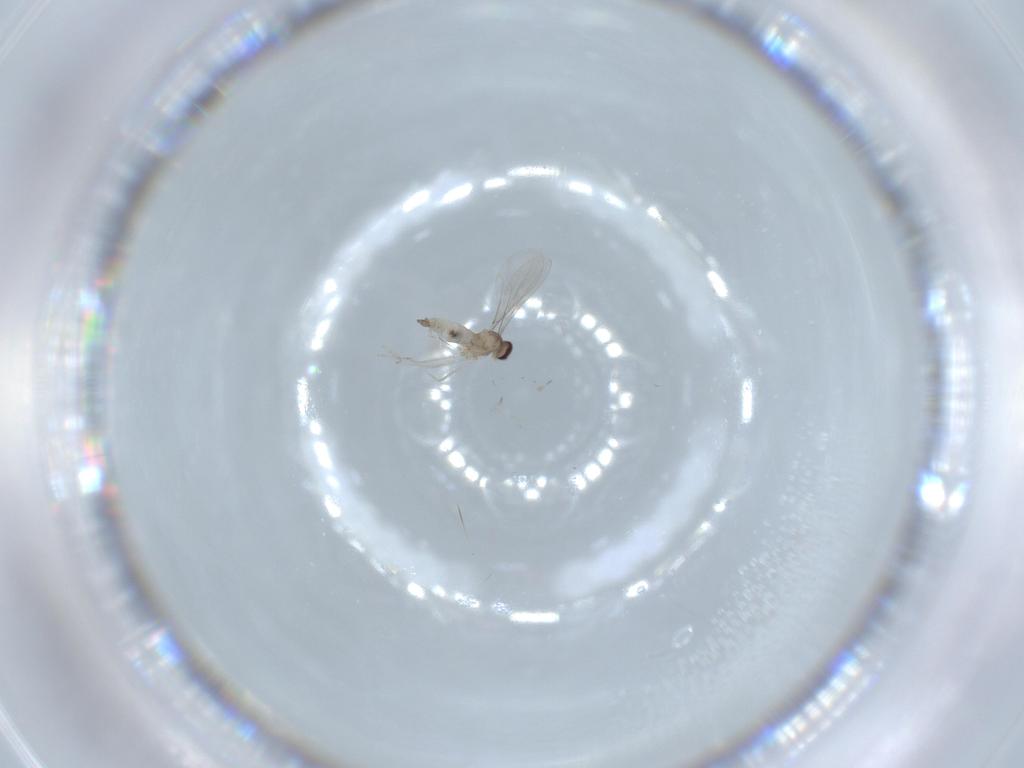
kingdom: Animalia
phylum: Arthropoda
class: Insecta
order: Diptera
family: Cecidomyiidae
